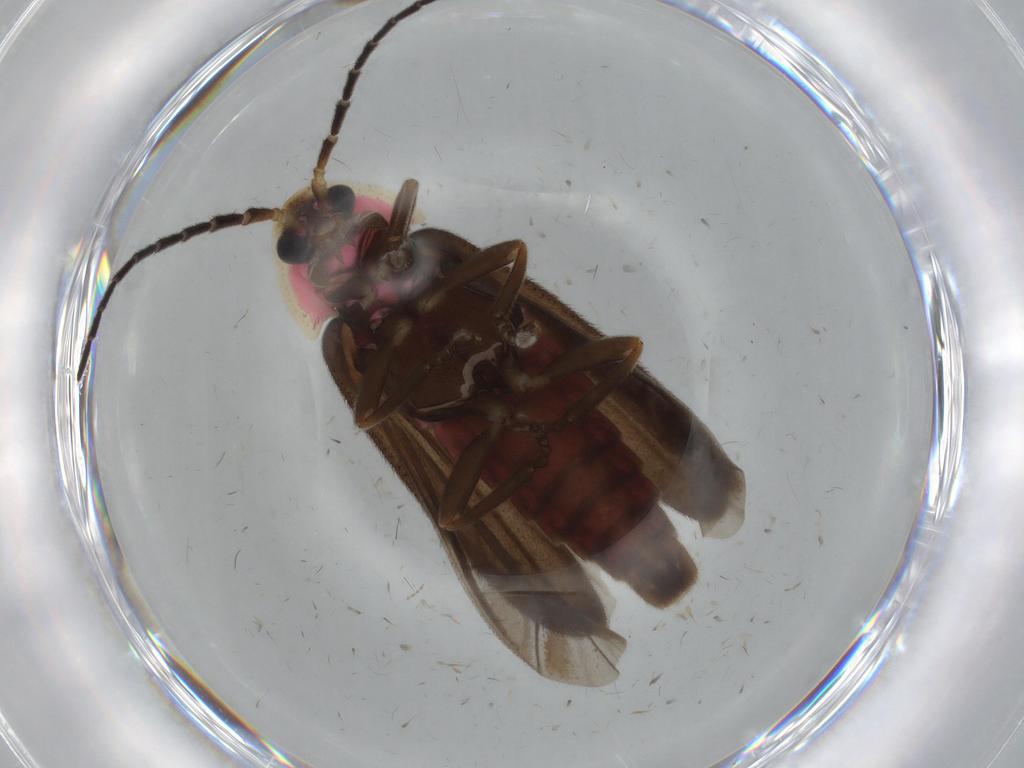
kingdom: Animalia
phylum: Arthropoda
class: Insecta
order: Coleoptera
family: Lampyridae
